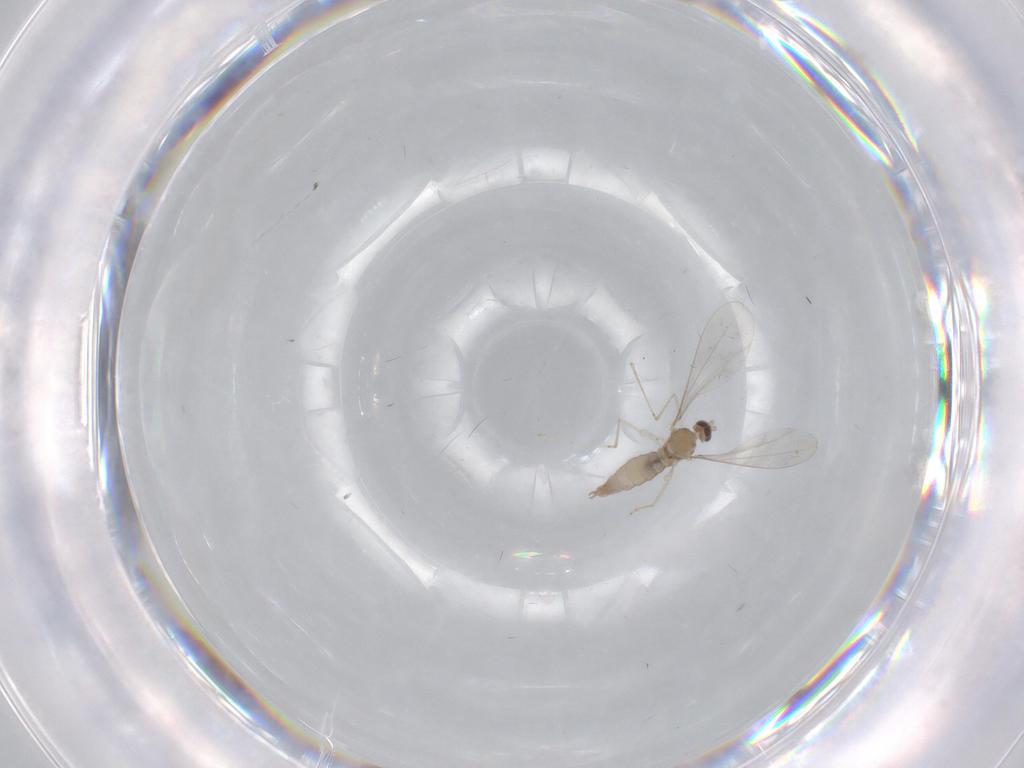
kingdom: Animalia
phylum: Arthropoda
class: Insecta
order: Diptera
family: Cecidomyiidae
